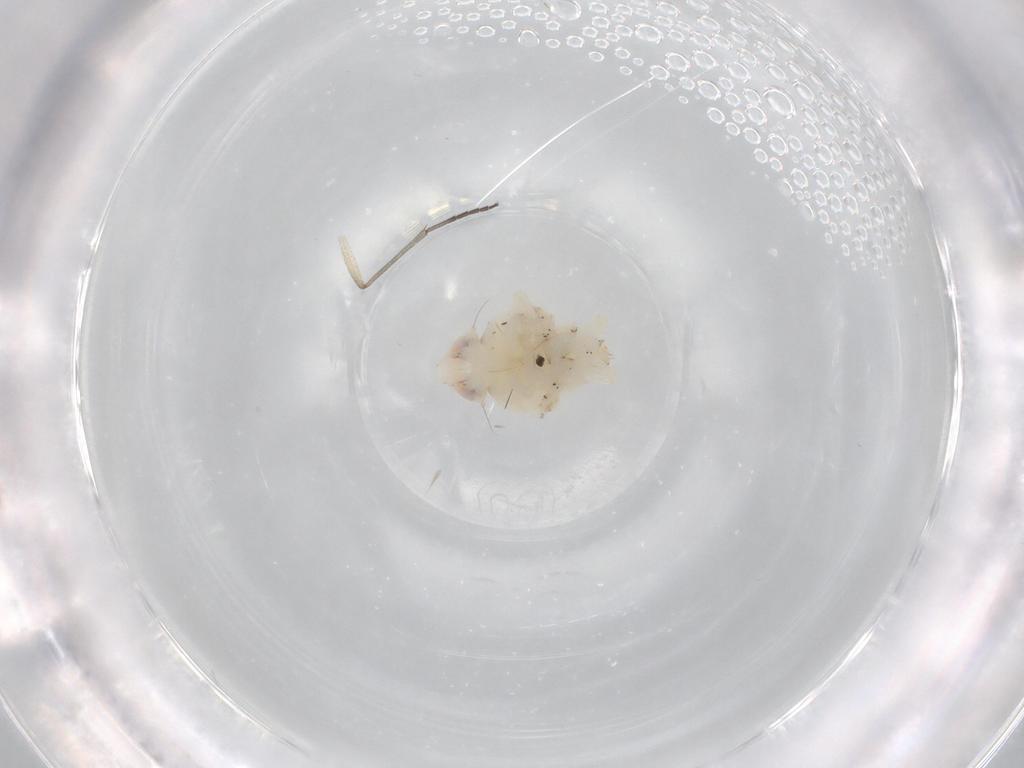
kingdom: Animalia
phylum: Arthropoda
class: Insecta
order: Hemiptera
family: Nogodinidae
